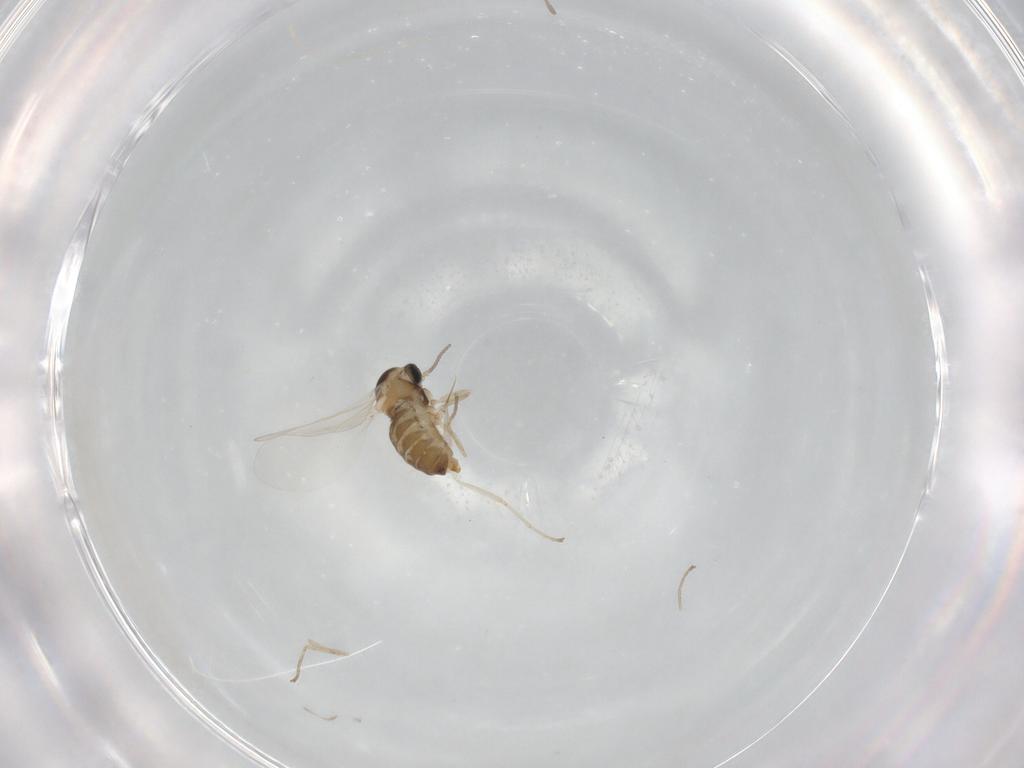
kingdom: Animalia
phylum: Arthropoda
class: Insecta
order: Diptera
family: Cecidomyiidae
